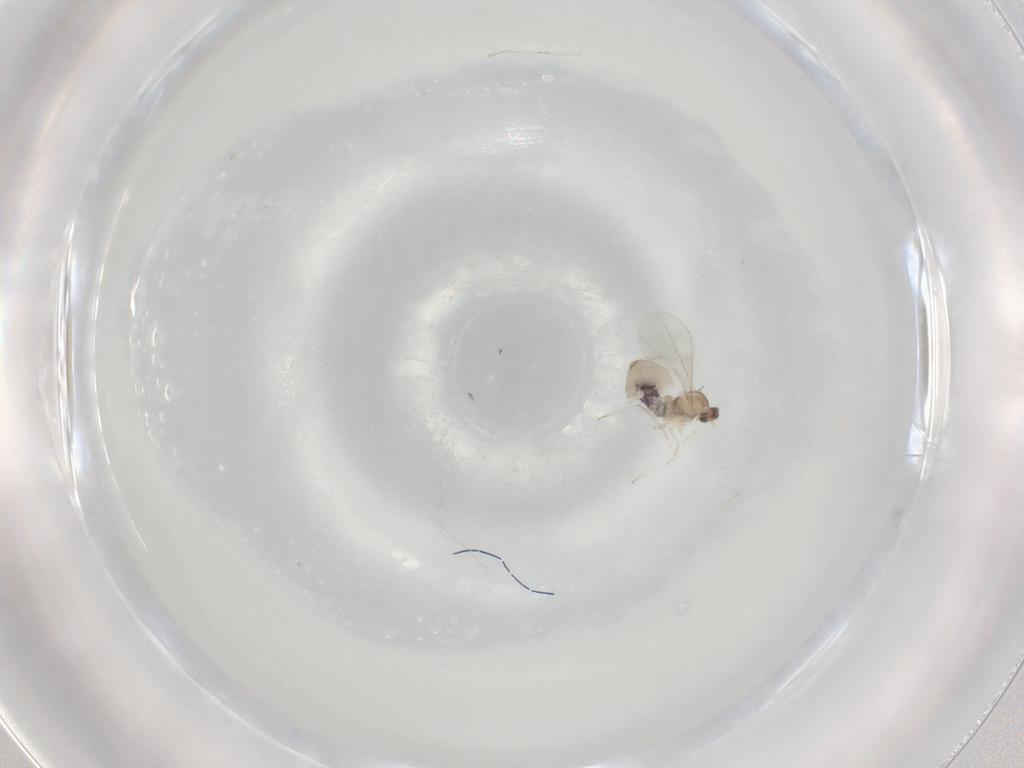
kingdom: Animalia
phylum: Arthropoda
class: Insecta
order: Diptera
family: Cecidomyiidae
